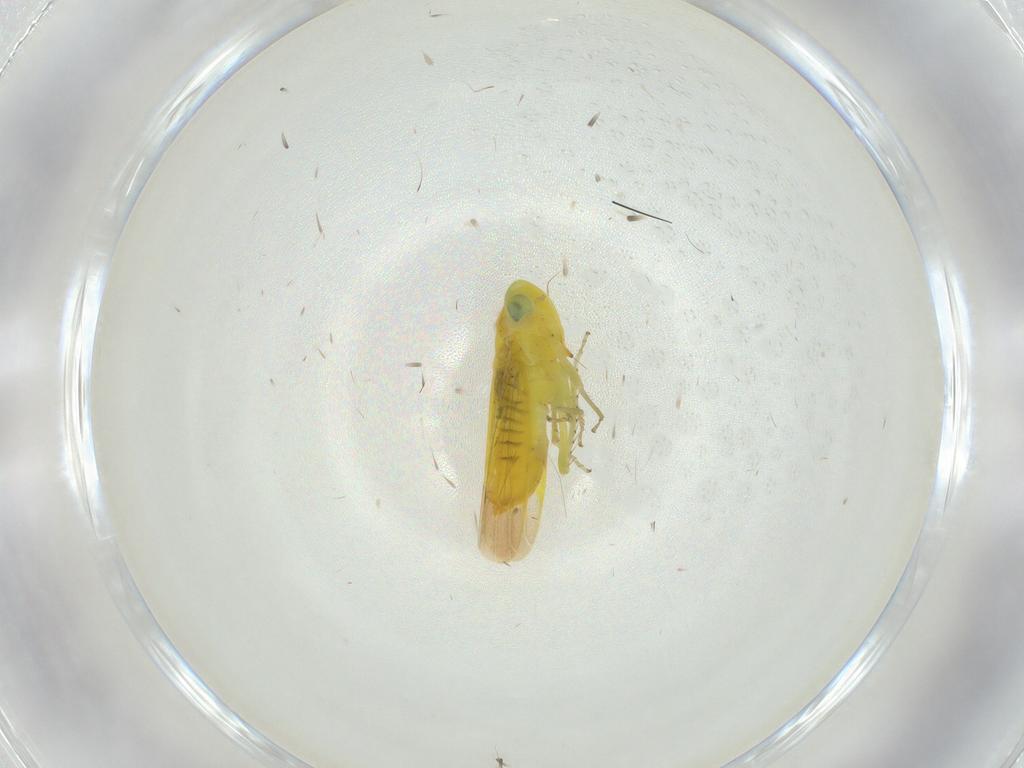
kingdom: Animalia
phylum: Arthropoda
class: Insecta
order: Hemiptera
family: Cicadellidae
